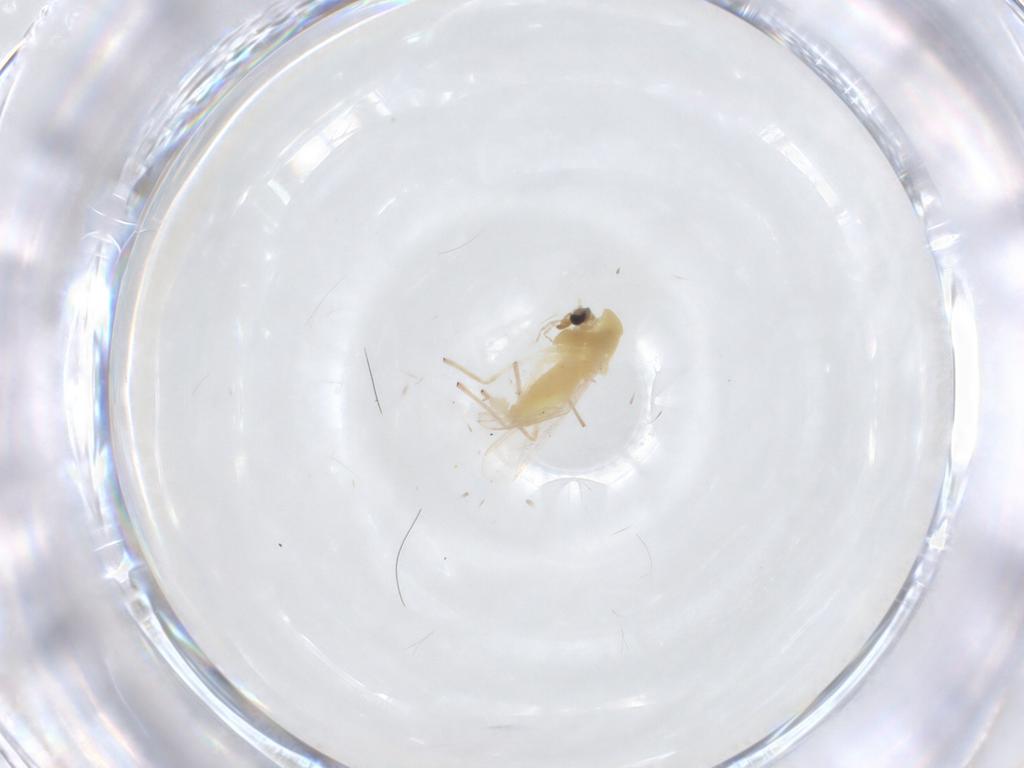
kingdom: Animalia
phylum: Arthropoda
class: Insecta
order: Diptera
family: Chironomidae
